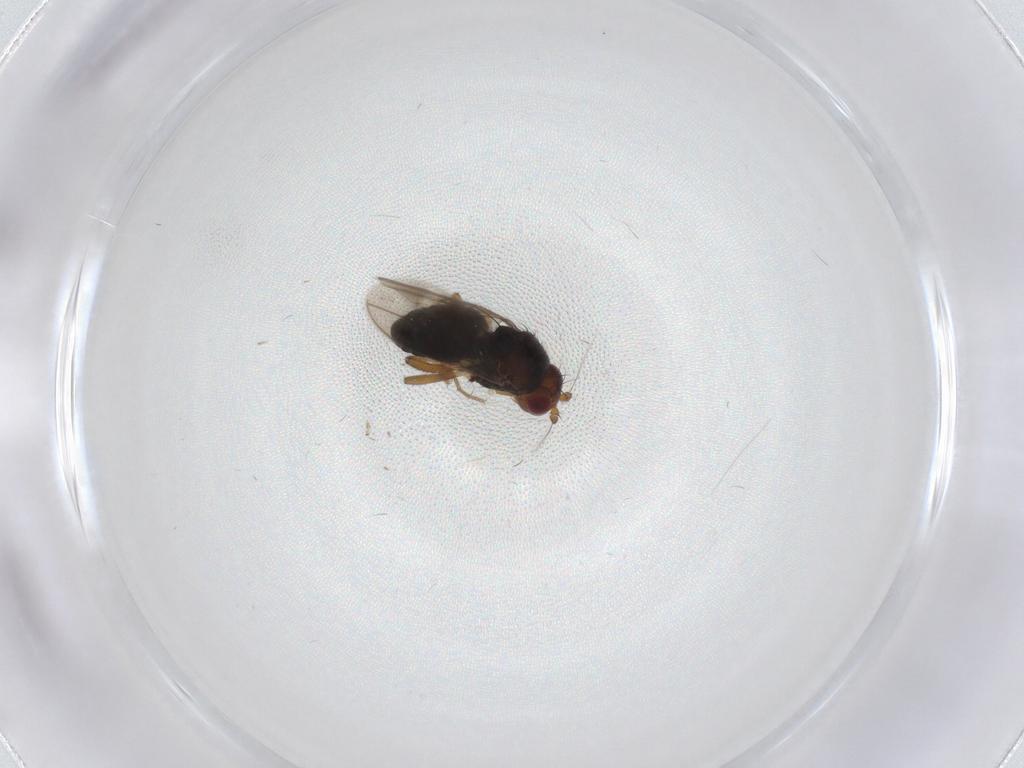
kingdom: Animalia
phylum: Arthropoda
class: Insecta
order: Diptera
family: Sphaeroceridae
